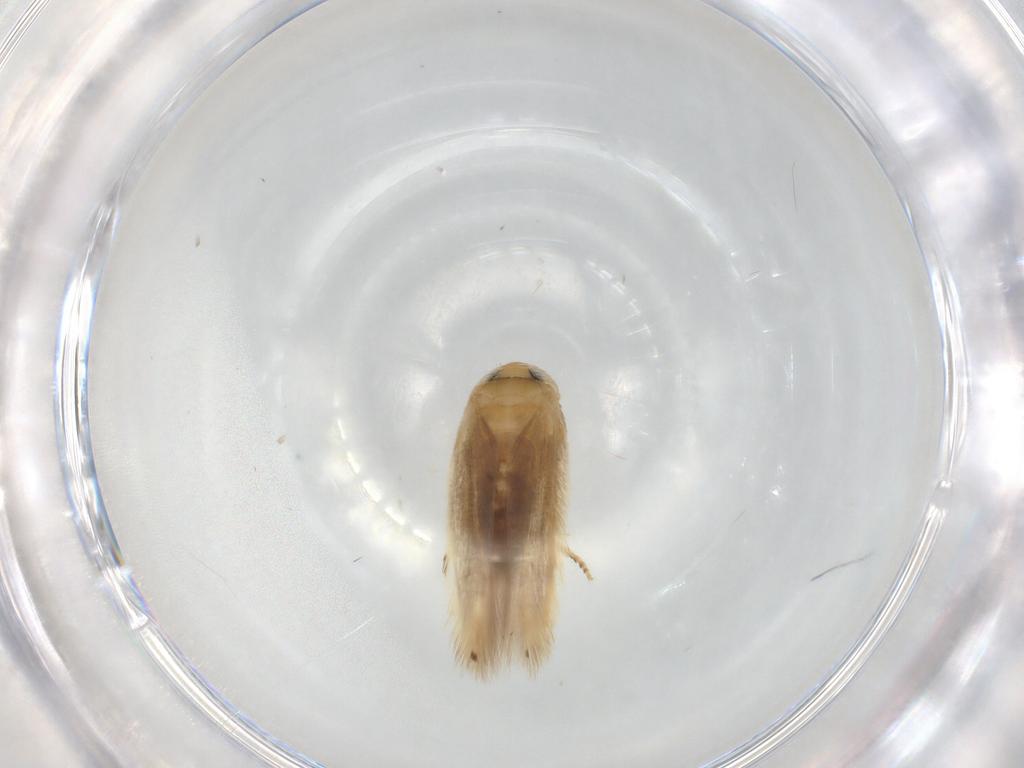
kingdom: Animalia
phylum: Arthropoda
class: Insecta
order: Lepidoptera
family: Opostegidae
